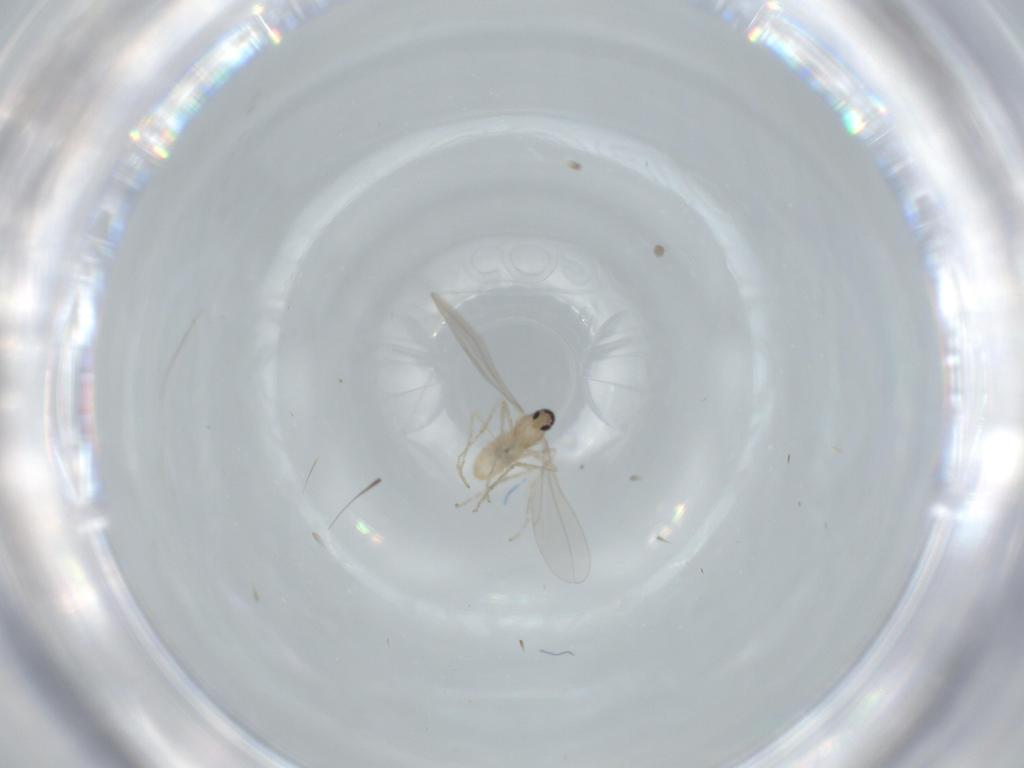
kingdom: Animalia
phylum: Arthropoda
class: Insecta
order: Diptera
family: Cecidomyiidae
